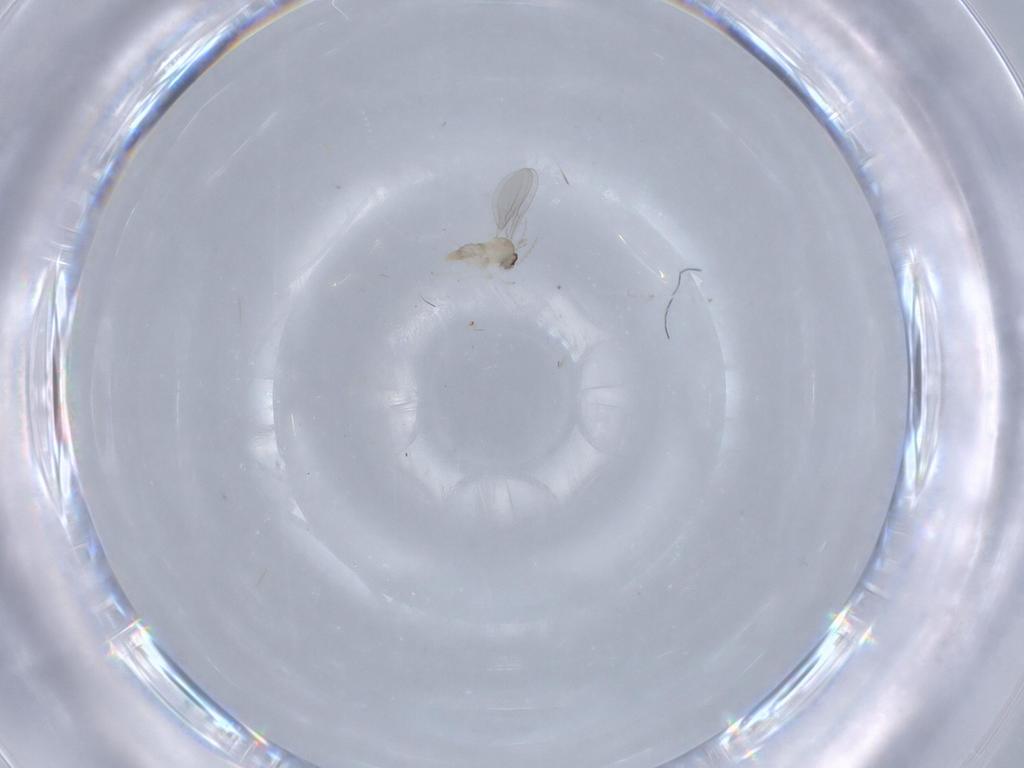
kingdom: Animalia
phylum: Arthropoda
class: Insecta
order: Diptera
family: Cecidomyiidae
